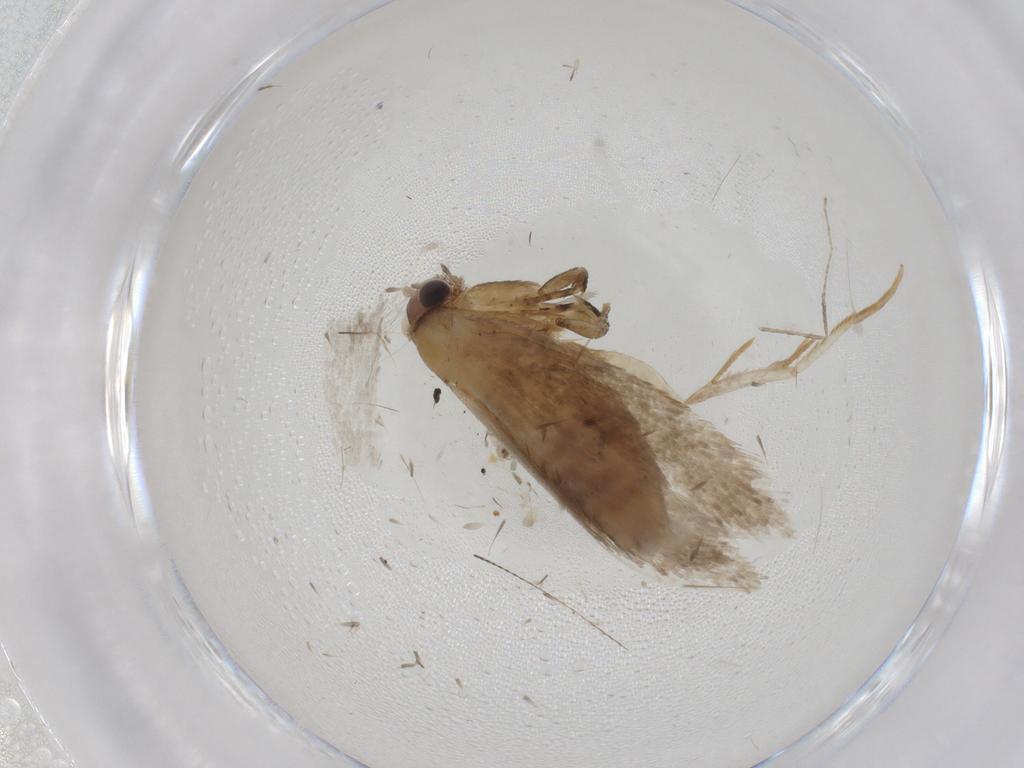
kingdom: Animalia
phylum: Arthropoda
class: Insecta
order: Lepidoptera
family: Tineidae
